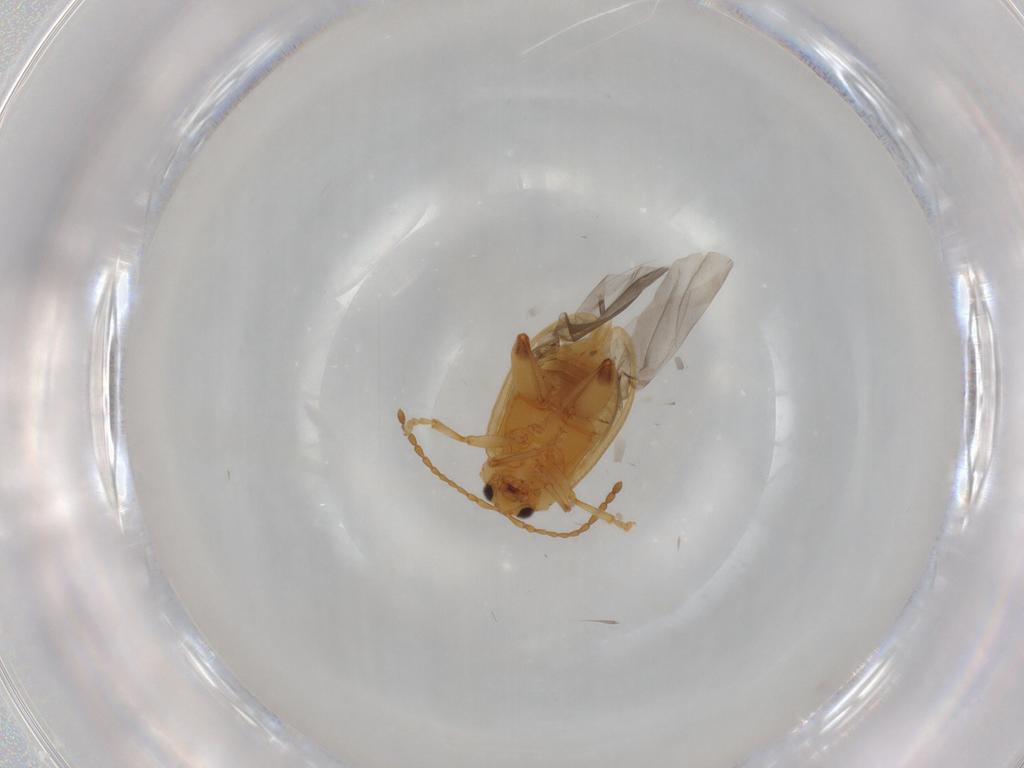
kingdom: Animalia
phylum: Arthropoda
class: Insecta
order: Coleoptera
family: Chrysomelidae
